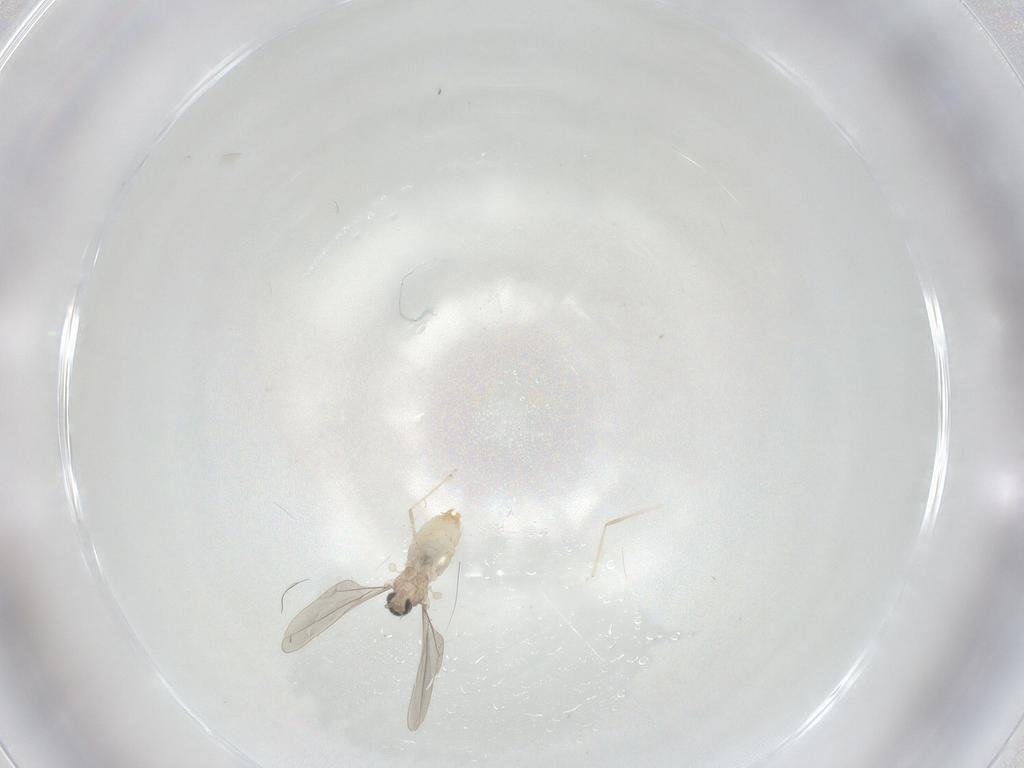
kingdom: Animalia
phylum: Arthropoda
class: Insecta
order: Diptera
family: Cecidomyiidae
